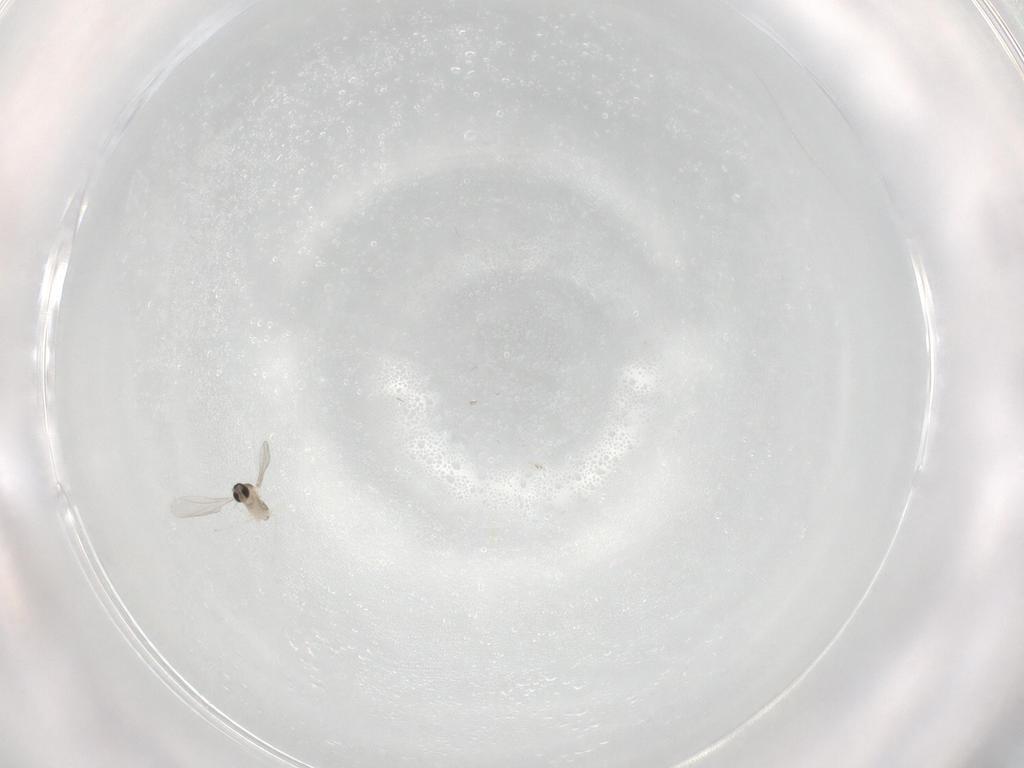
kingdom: Animalia
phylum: Arthropoda
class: Insecta
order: Diptera
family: Cecidomyiidae
